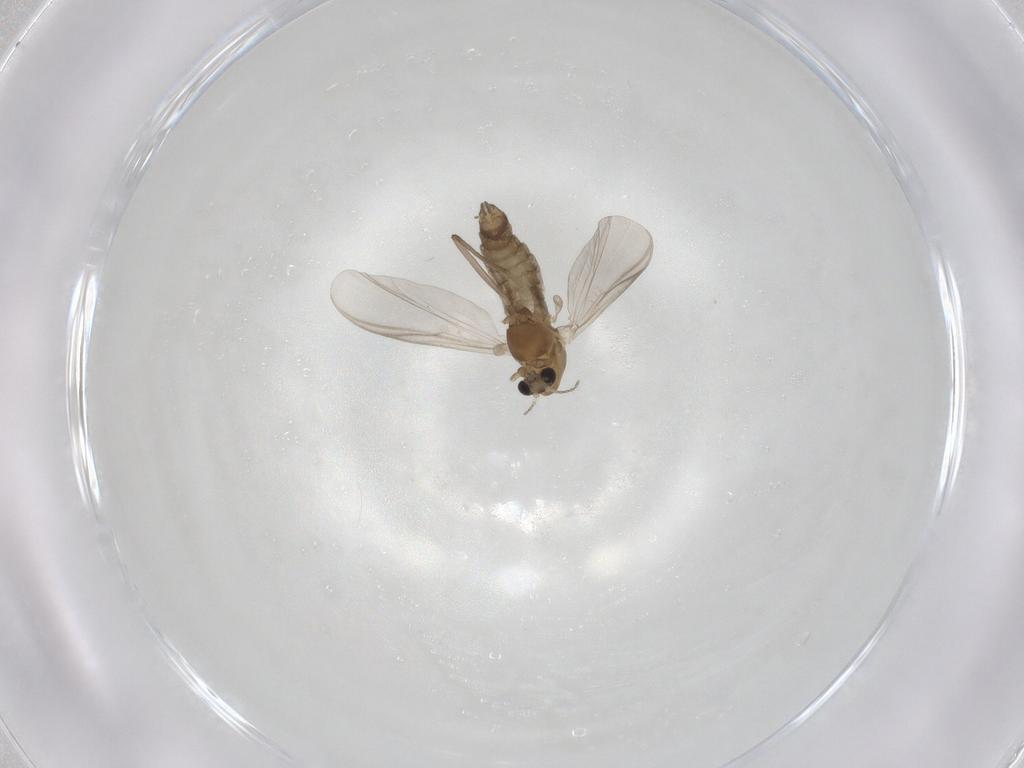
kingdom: Animalia
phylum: Arthropoda
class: Insecta
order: Diptera
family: Chironomidae
